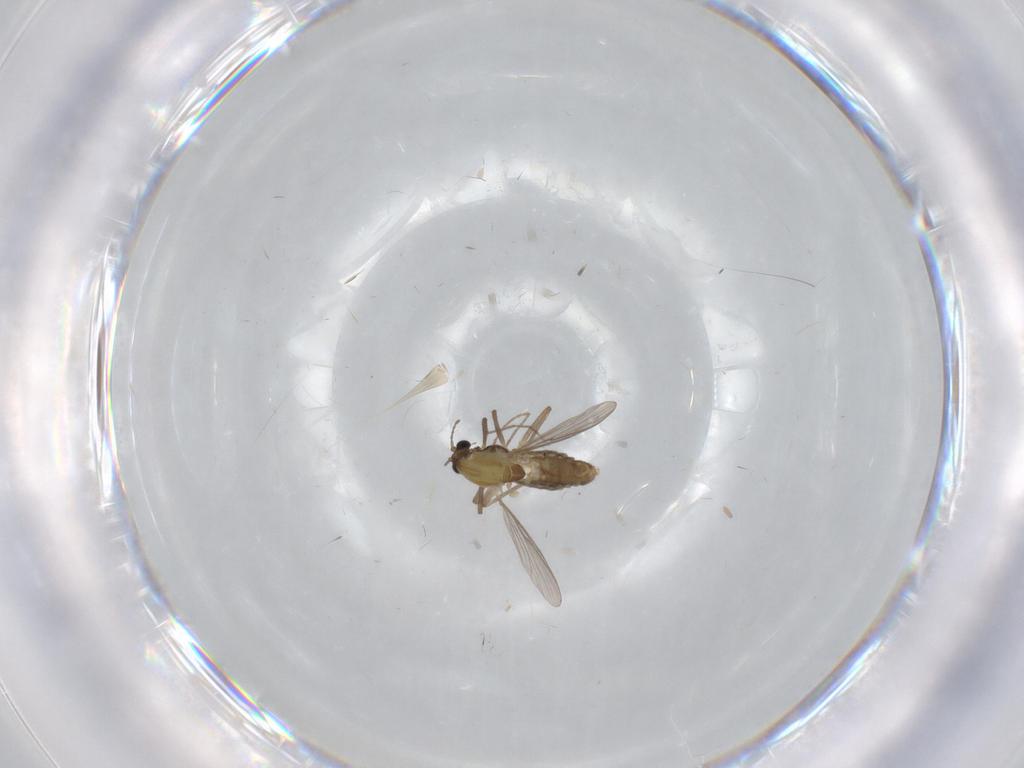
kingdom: Animalia
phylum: Arthropoda
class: Insecta
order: Diptera
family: Chironomidae
